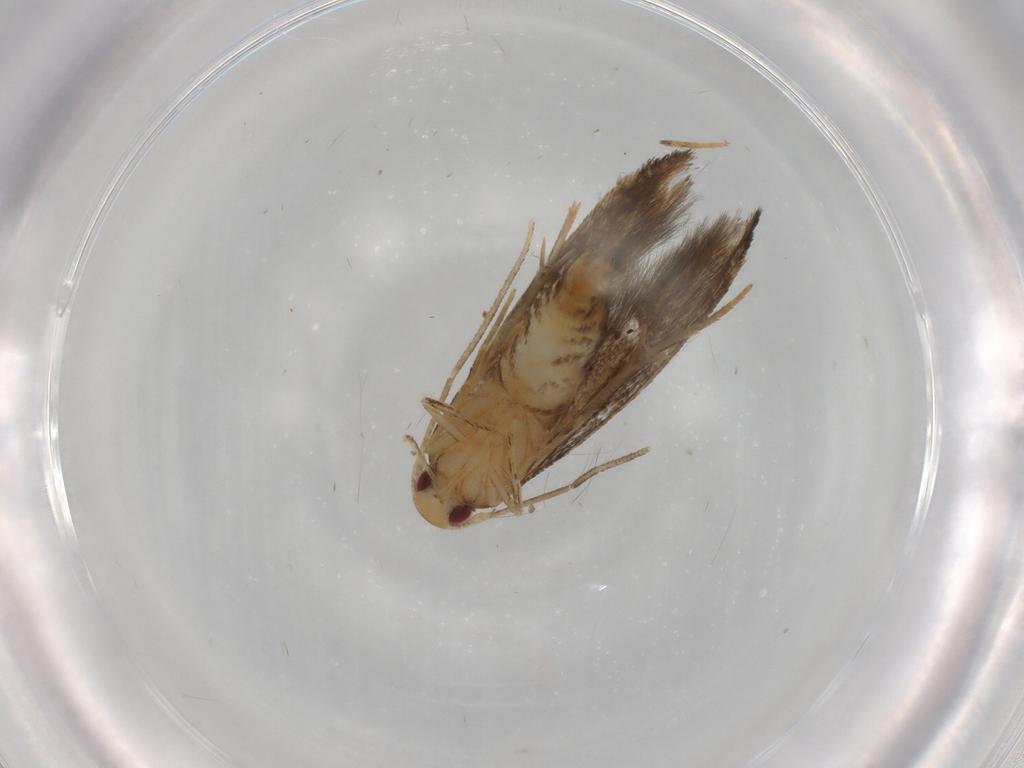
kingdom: Animalia
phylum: Arthropoda
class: Insecta
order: Lepidoptera
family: Momphidae
